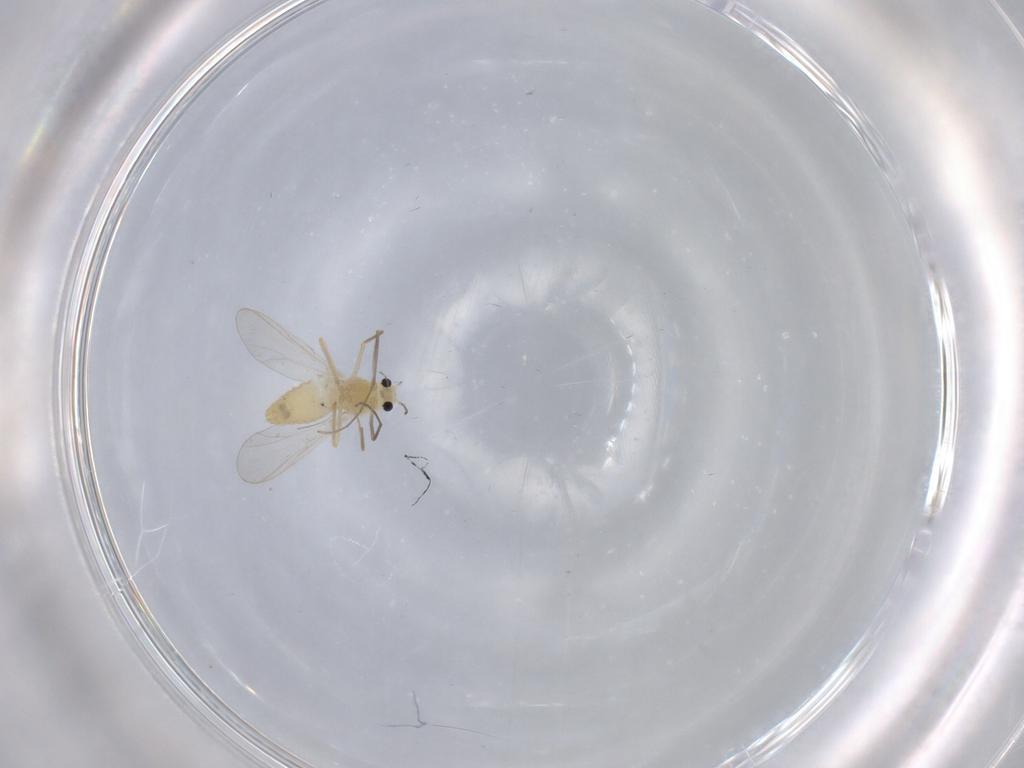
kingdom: Animalia
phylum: Arthropoda
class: Insecta
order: Diptera
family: Chironomidae
